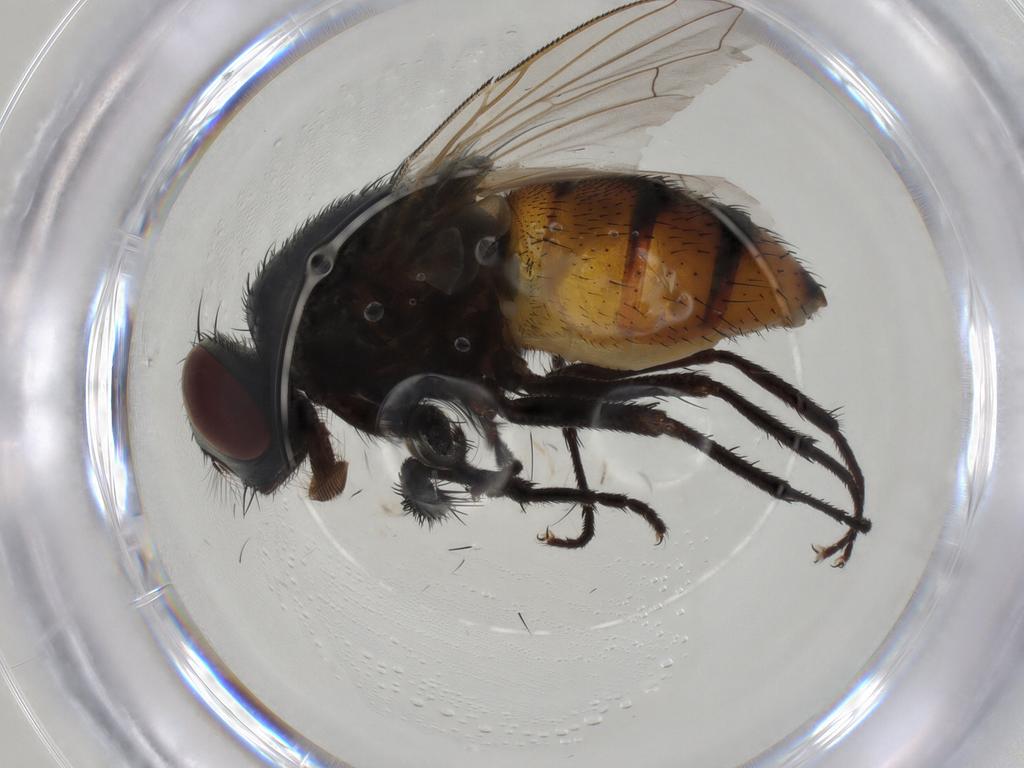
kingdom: Animalia
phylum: Arthropoda
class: Insecta
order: Diptera
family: Muscidae
